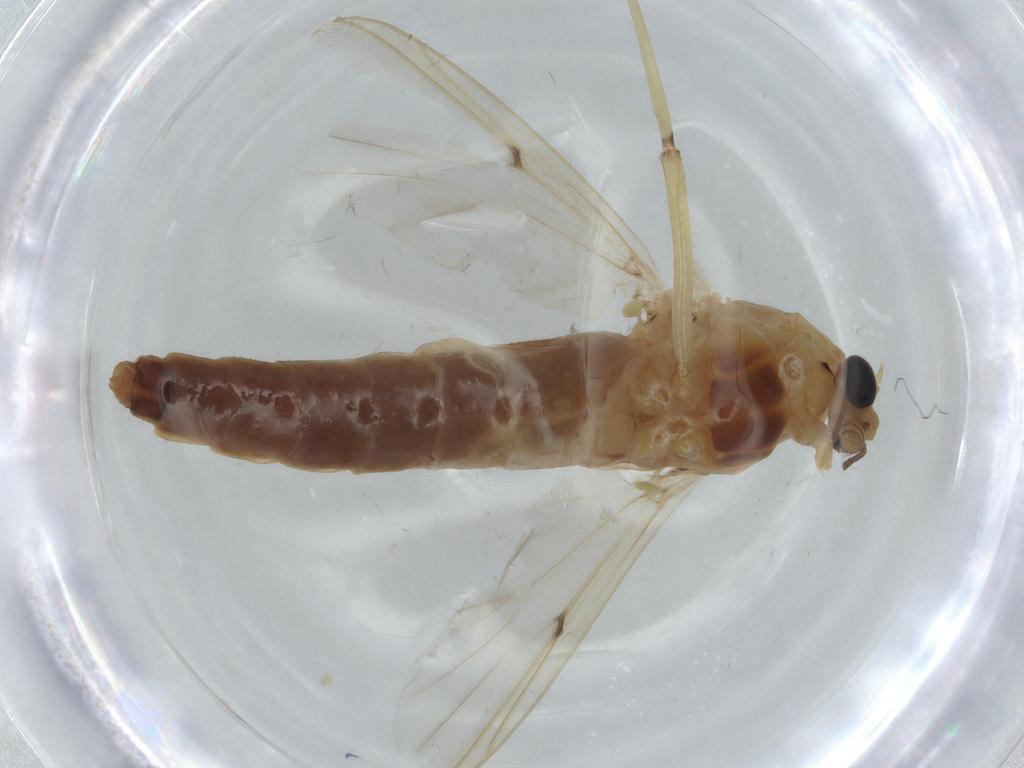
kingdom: Animalia
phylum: Arthropoda
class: Insecta
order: Diptera
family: Chironomidae
